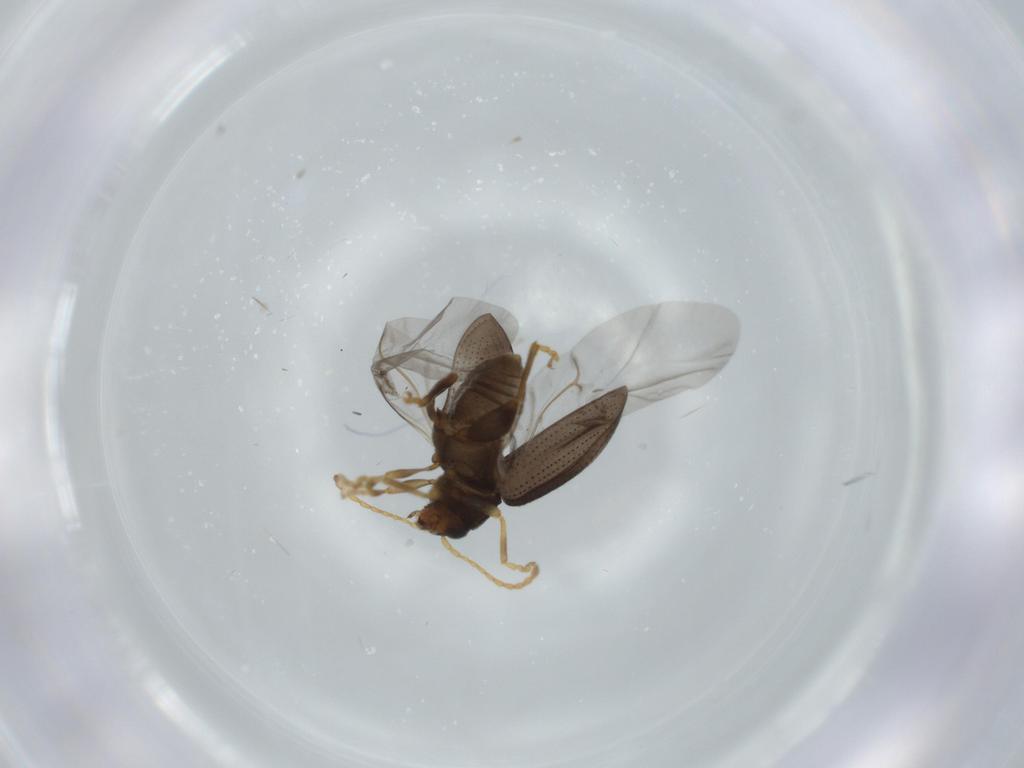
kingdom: Animalia
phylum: Arthropoda
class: Insecta
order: Coleoptera
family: Chrysomelidae
